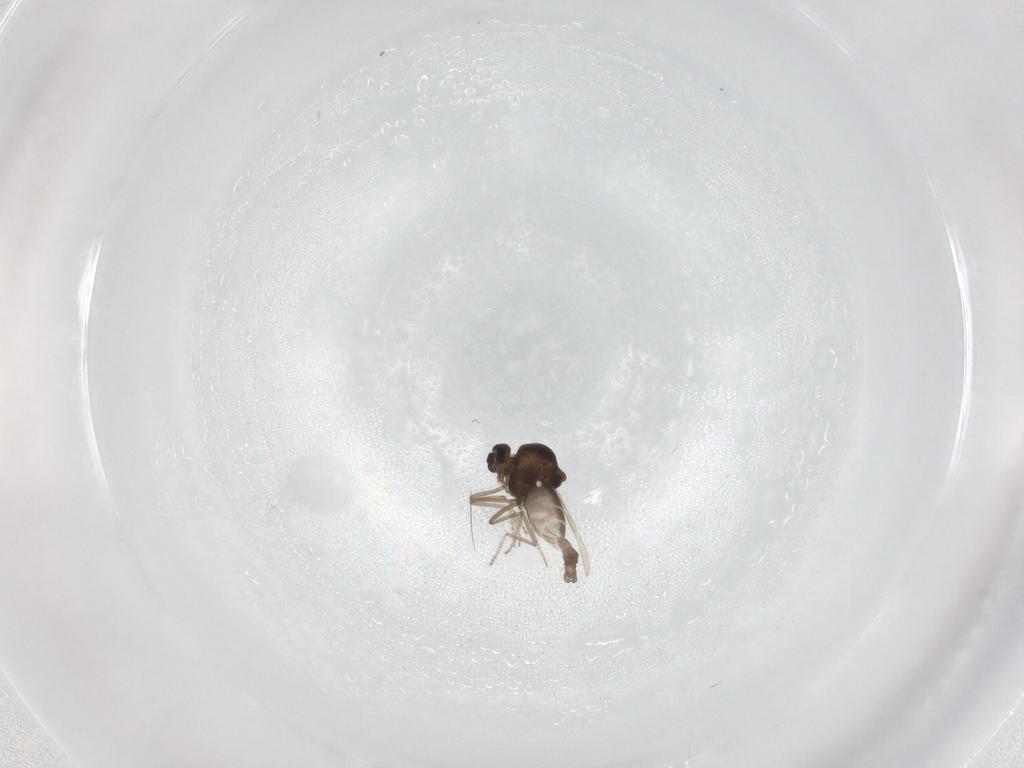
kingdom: Animalia
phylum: Arthropoda
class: Insecta
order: Diptera
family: Ceratopogonidae
